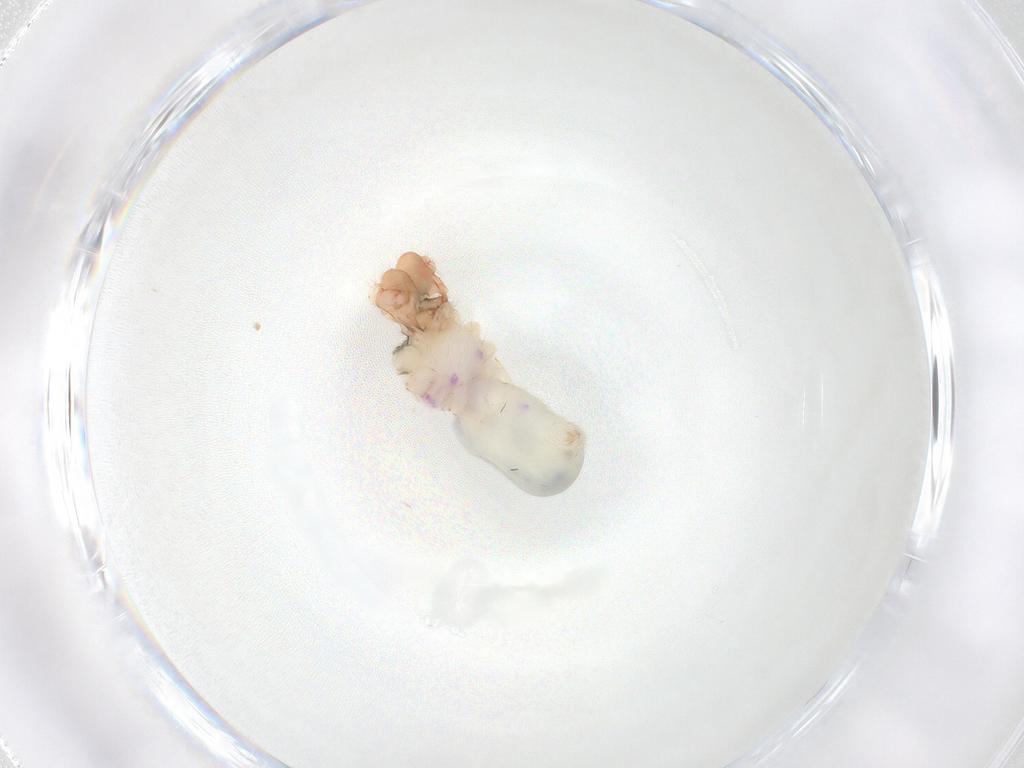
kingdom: Animalia
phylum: Arthropoda
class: Arachnida
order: Araneae
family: Pholcidae
